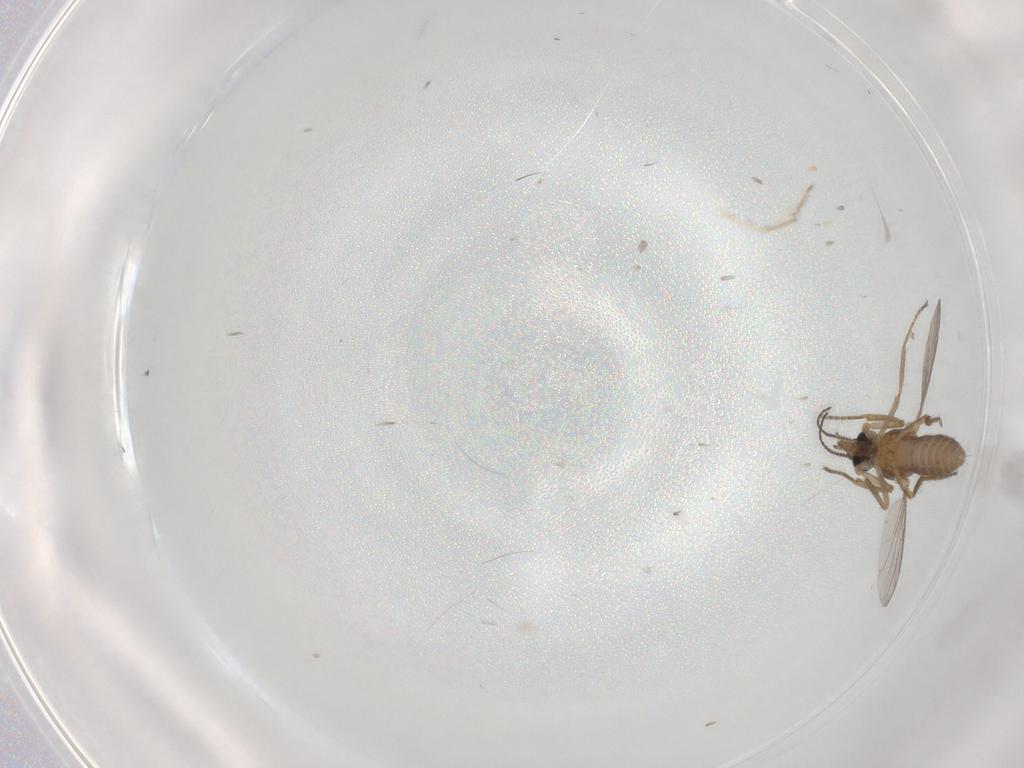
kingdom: Animalia
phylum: Arthropoda
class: Insecta
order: Diptera
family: Ceratopogonidae
